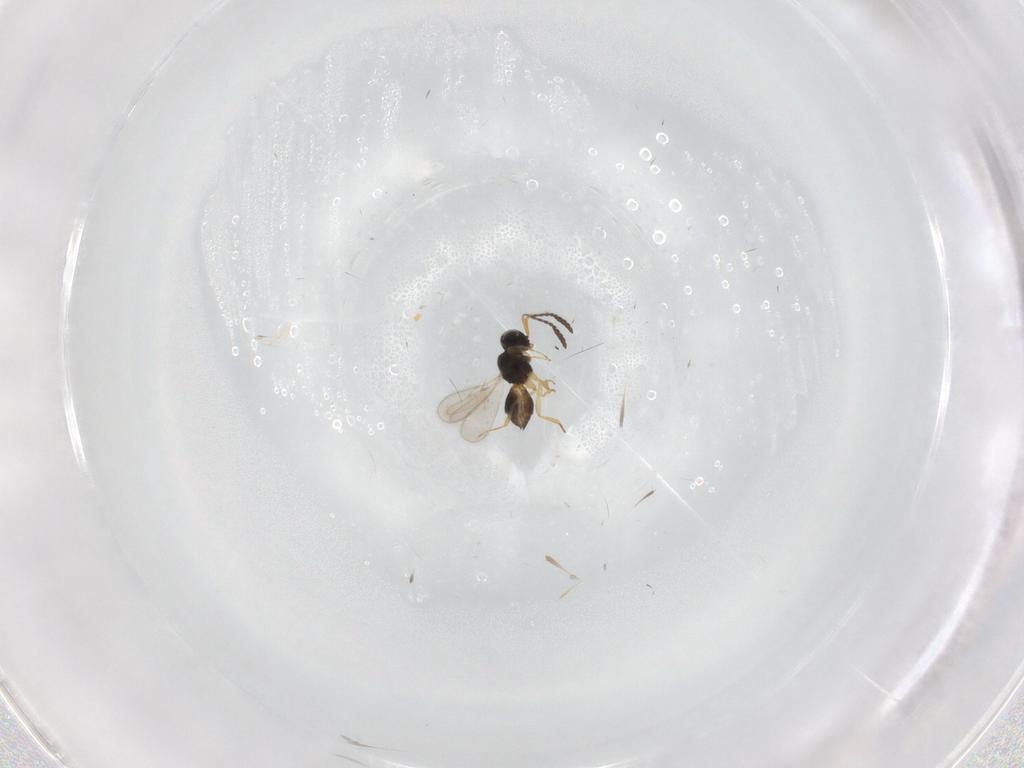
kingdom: Animalia
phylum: Arthropoda
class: Insecta
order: Hymenoptera
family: Scelionidae
